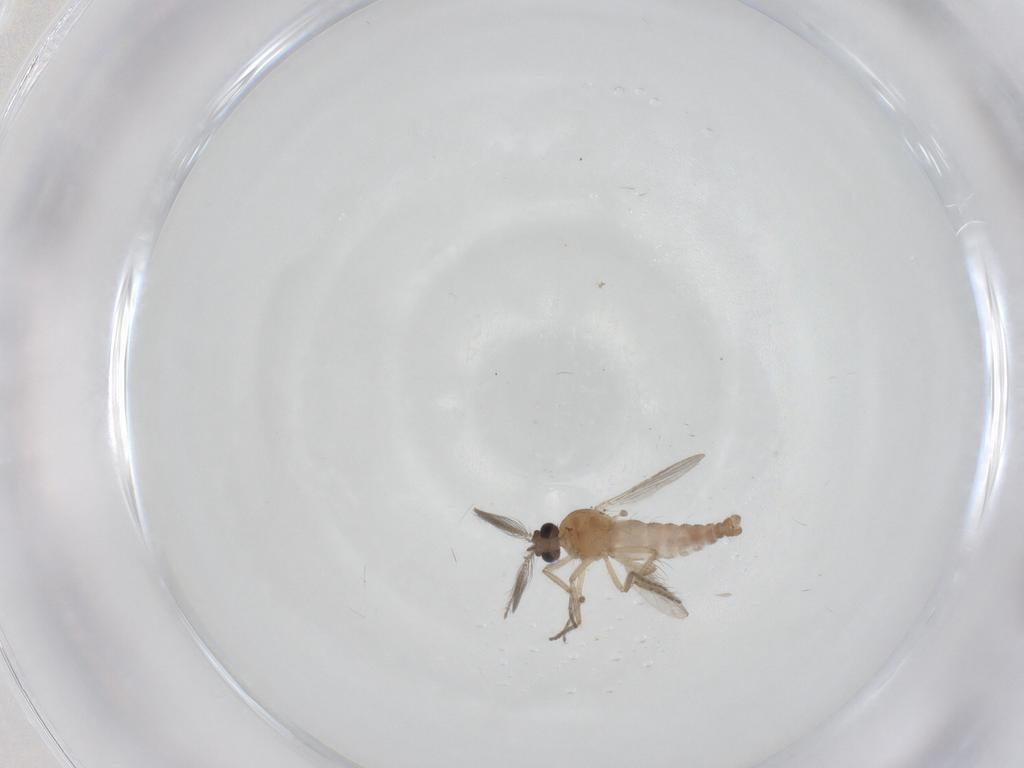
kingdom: Animalia
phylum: Arthropoda
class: Insecta
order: Diptera
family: Ceratopogonidae
